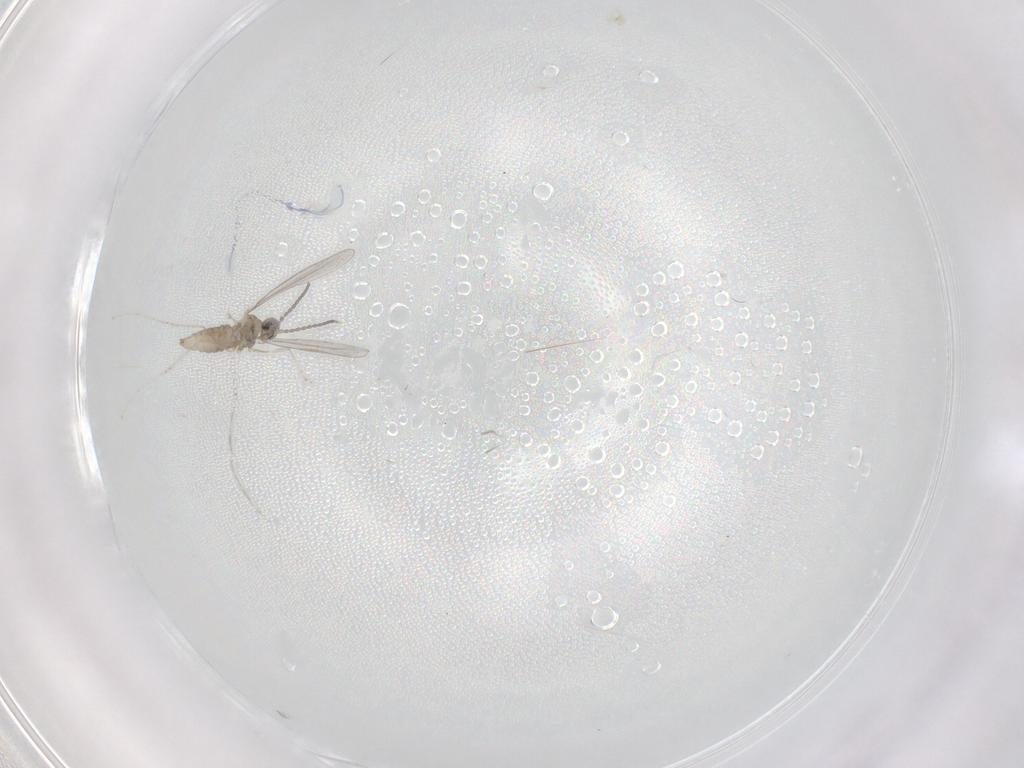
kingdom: Animalia
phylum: Arthropoda
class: Insecta
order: Diptera
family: Cecidomyiidae
